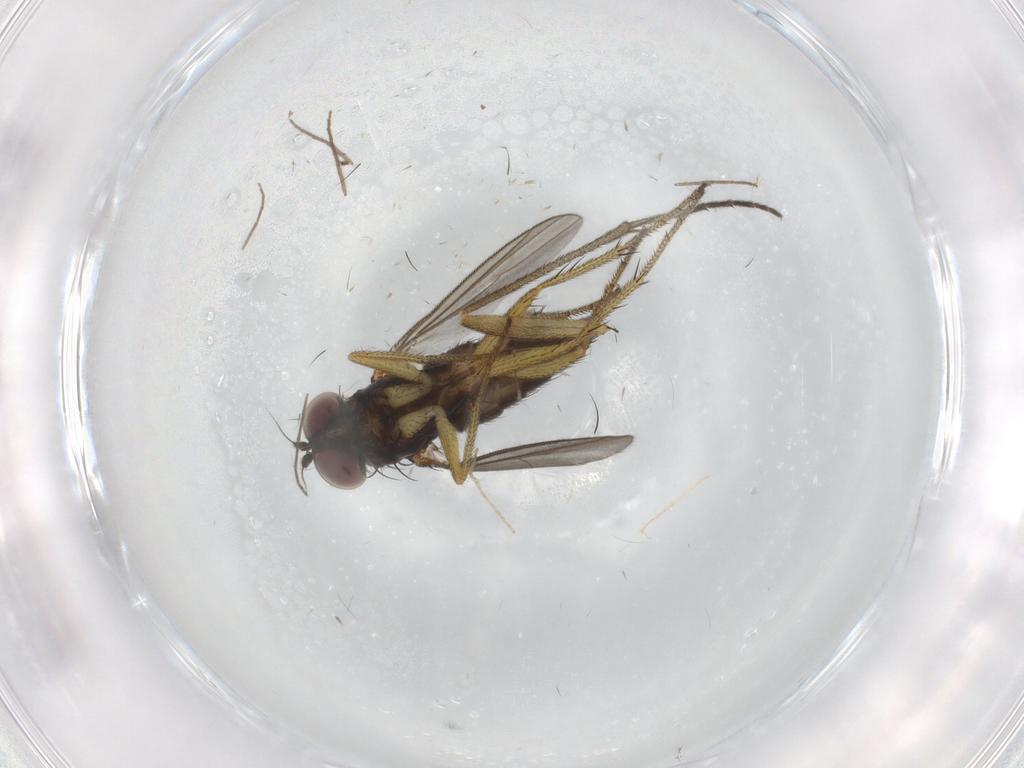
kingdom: Animalia
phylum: Arthropoda
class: Insecta
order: Diptera
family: Dolichopodidae
